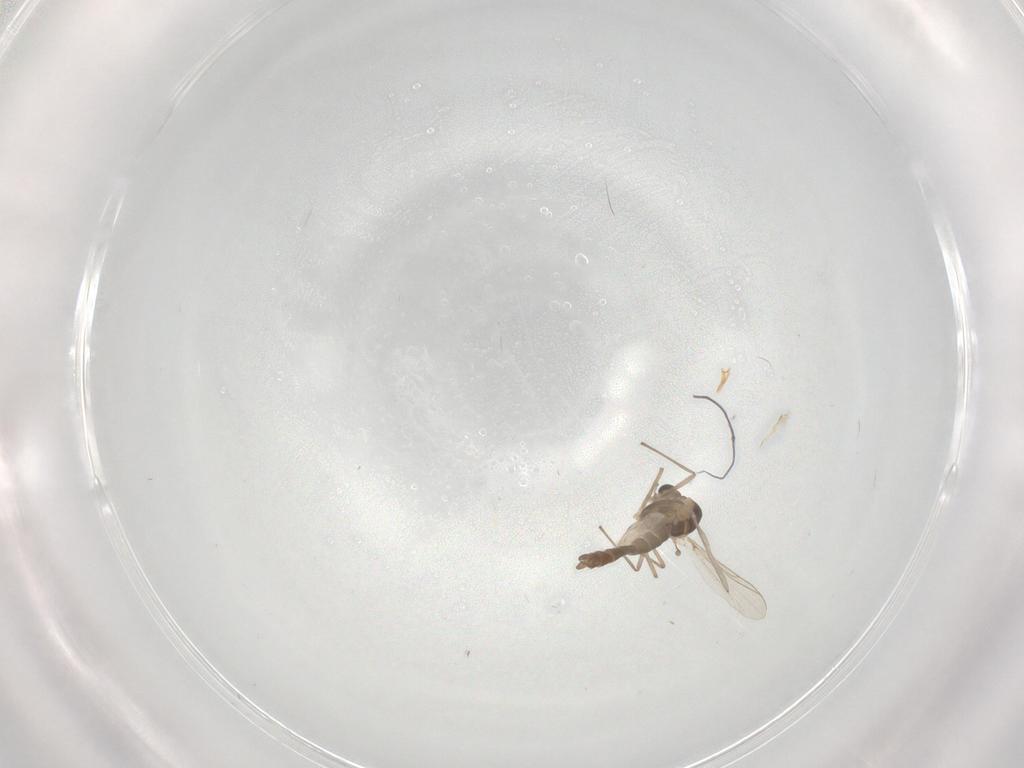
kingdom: Animalia
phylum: Arthropoda
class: Insecta
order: Diptera
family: Chironomidae
